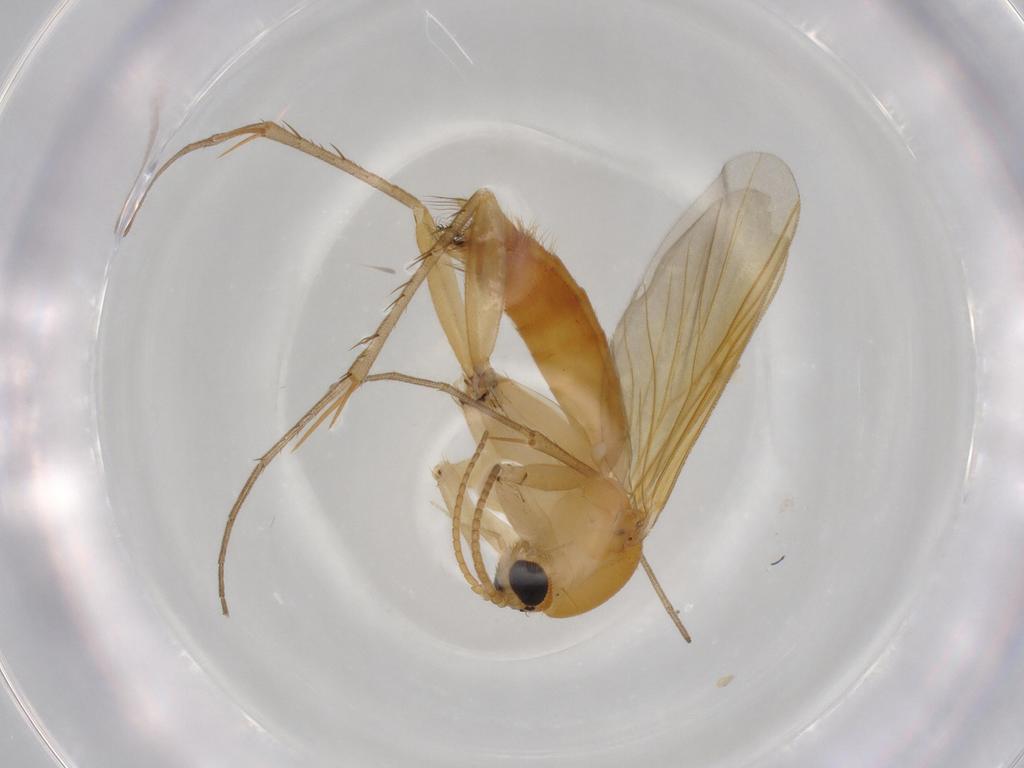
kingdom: Animalia
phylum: Arthropoda
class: Insecta
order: Diptera
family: Mycetophilidae
